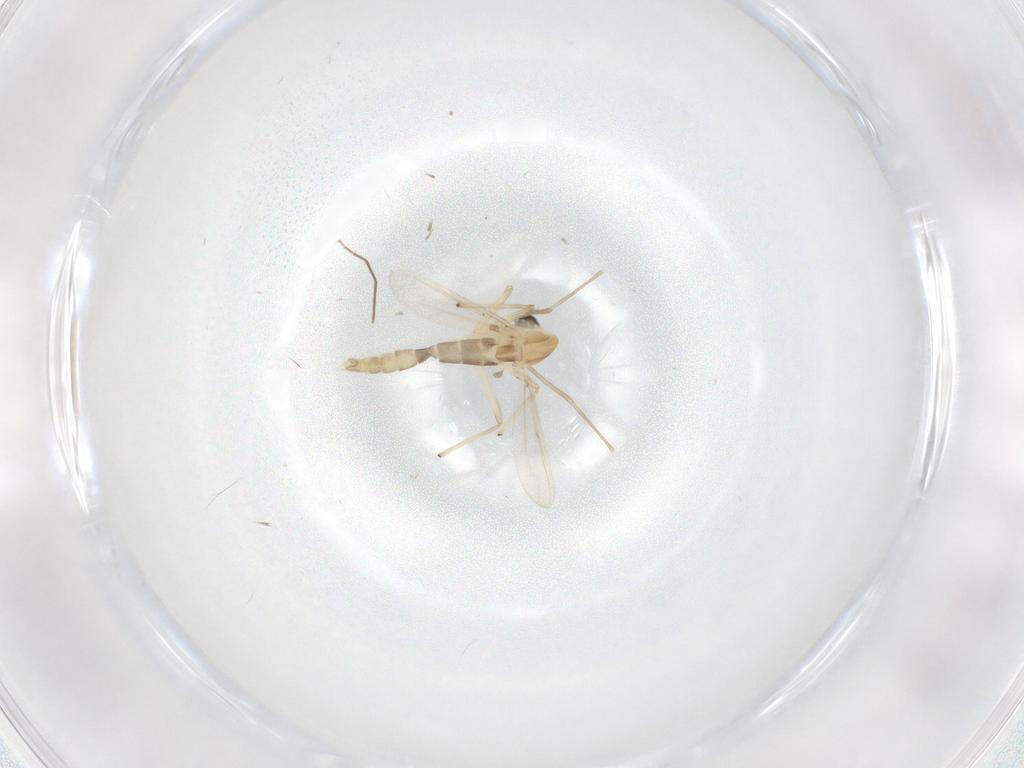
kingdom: Animalia
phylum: Arthropoda
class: Insecta
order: Diptera
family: Chironomidae
